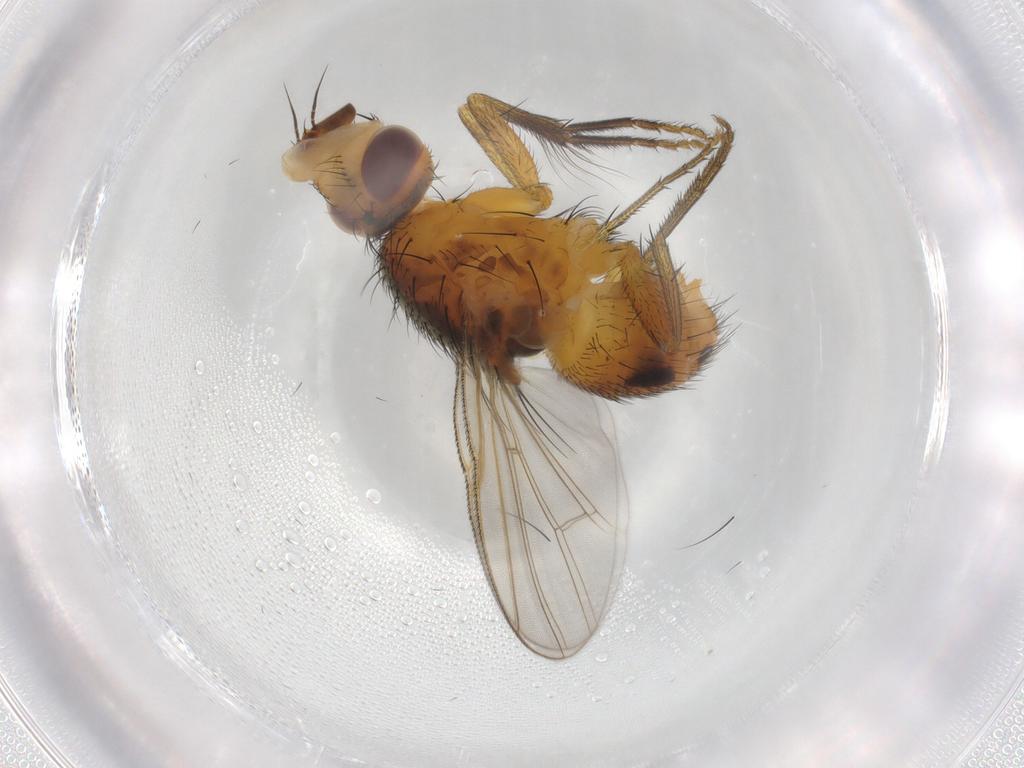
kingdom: Animalia
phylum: Arthropoda
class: Insecta
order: Diptera
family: Muscidae
